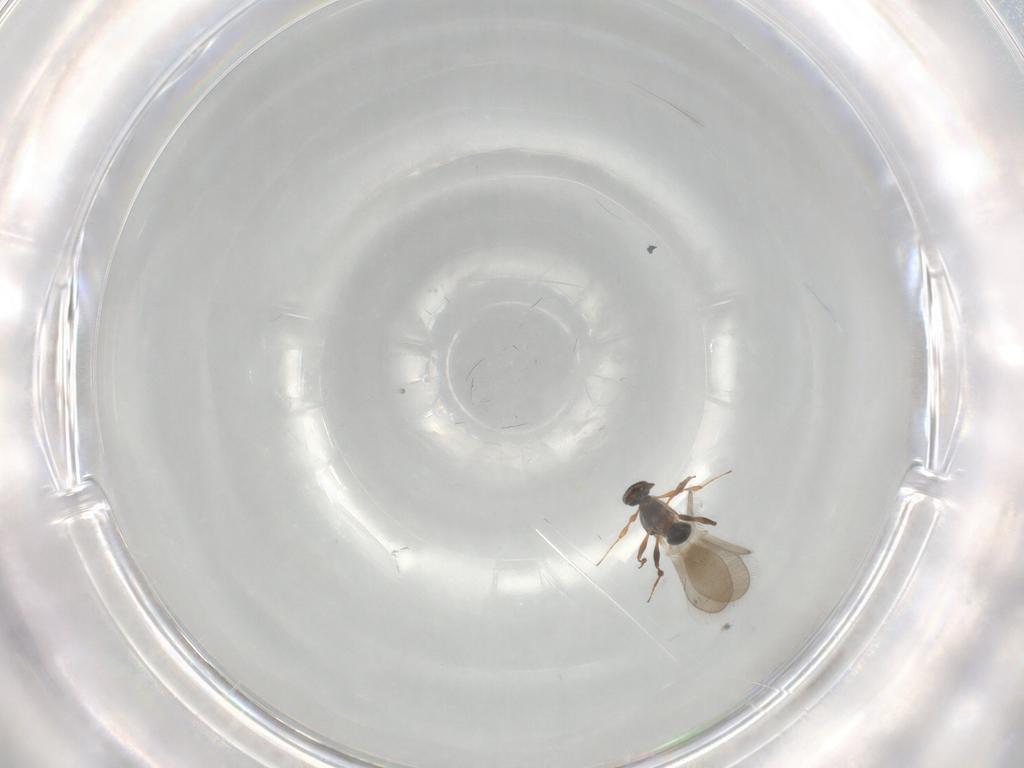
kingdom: Animalia
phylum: Arthropoda
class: Insecta
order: Hymenoptera
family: Platygastridae
